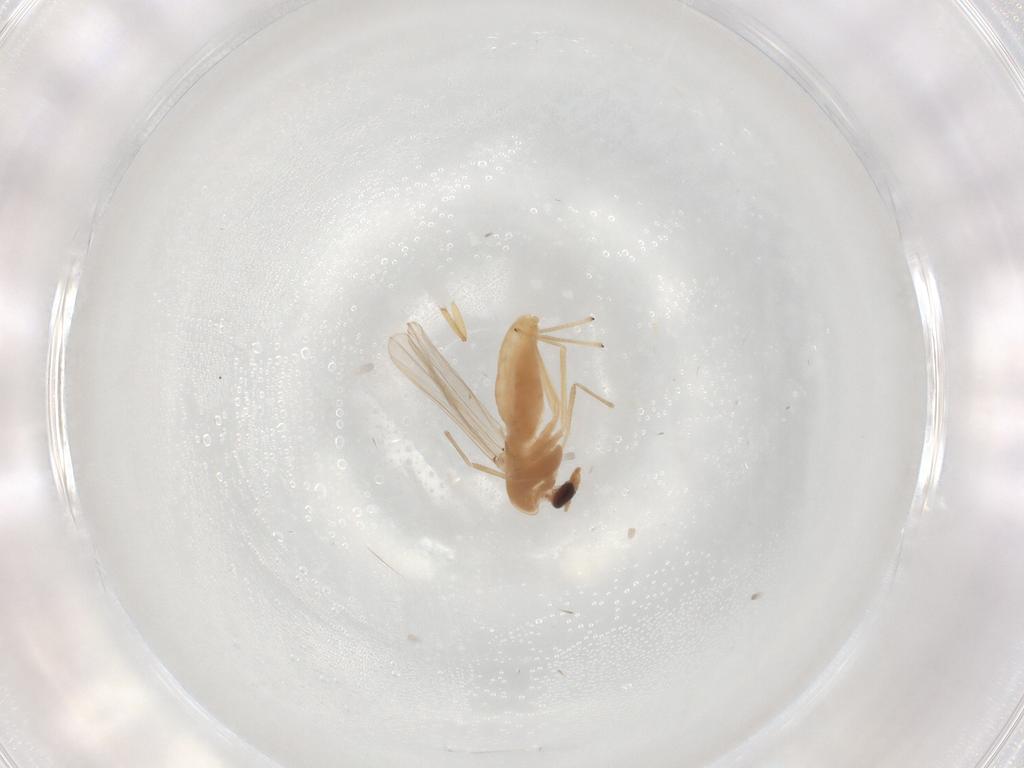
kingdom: Animalia
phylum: Arthropoda
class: Insecta
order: Diptera
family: Chironomidae
